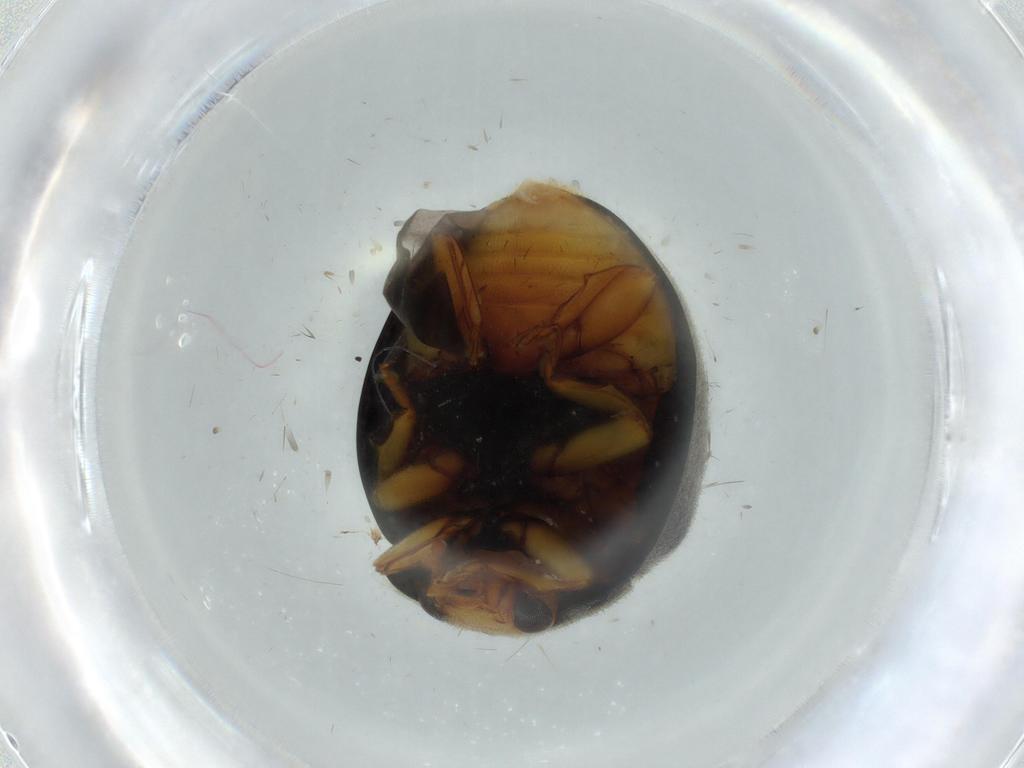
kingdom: Animalia
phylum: Arthropoda
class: Insecta
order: Coleoptera
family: Coccinellidae
